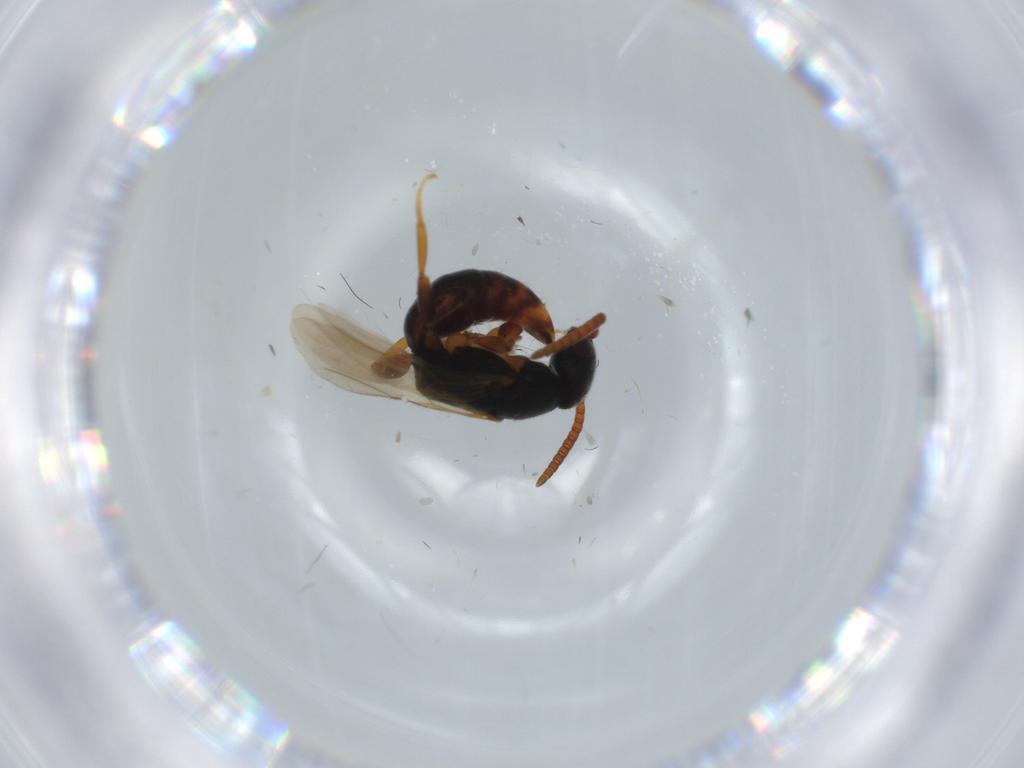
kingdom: Animalia
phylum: Arthropoda
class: Insecta
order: Hymenoptera
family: Bethylidae
